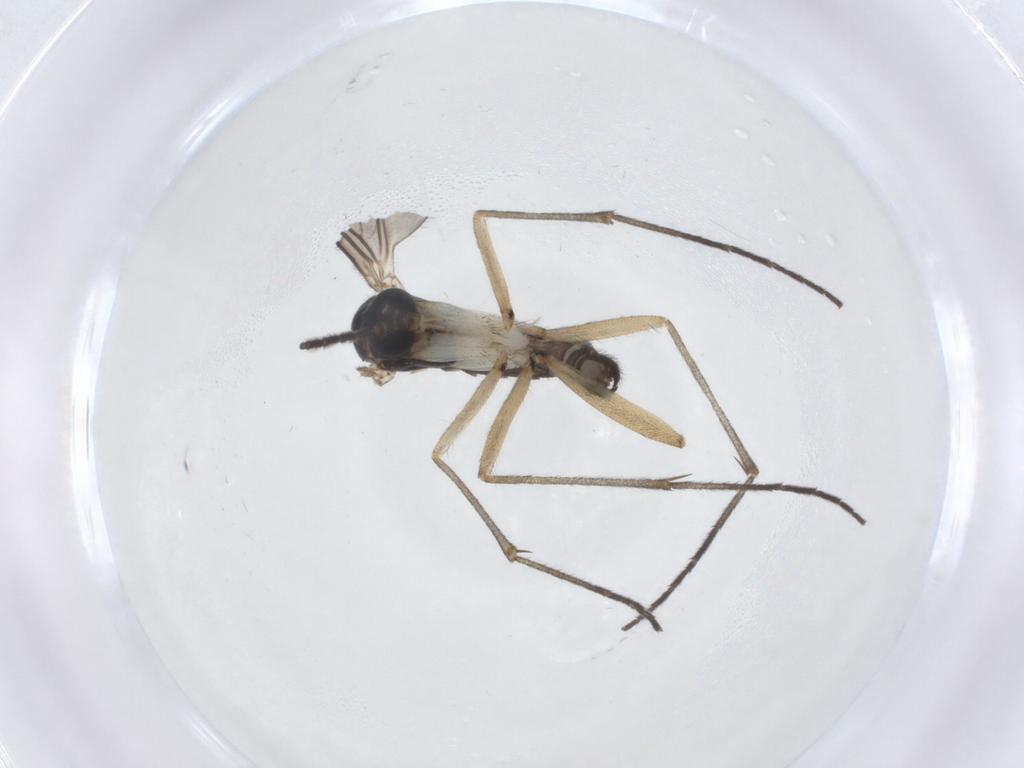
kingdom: Animalia
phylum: Arthropoda
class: Insecta
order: Diptera
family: Sciaridae
